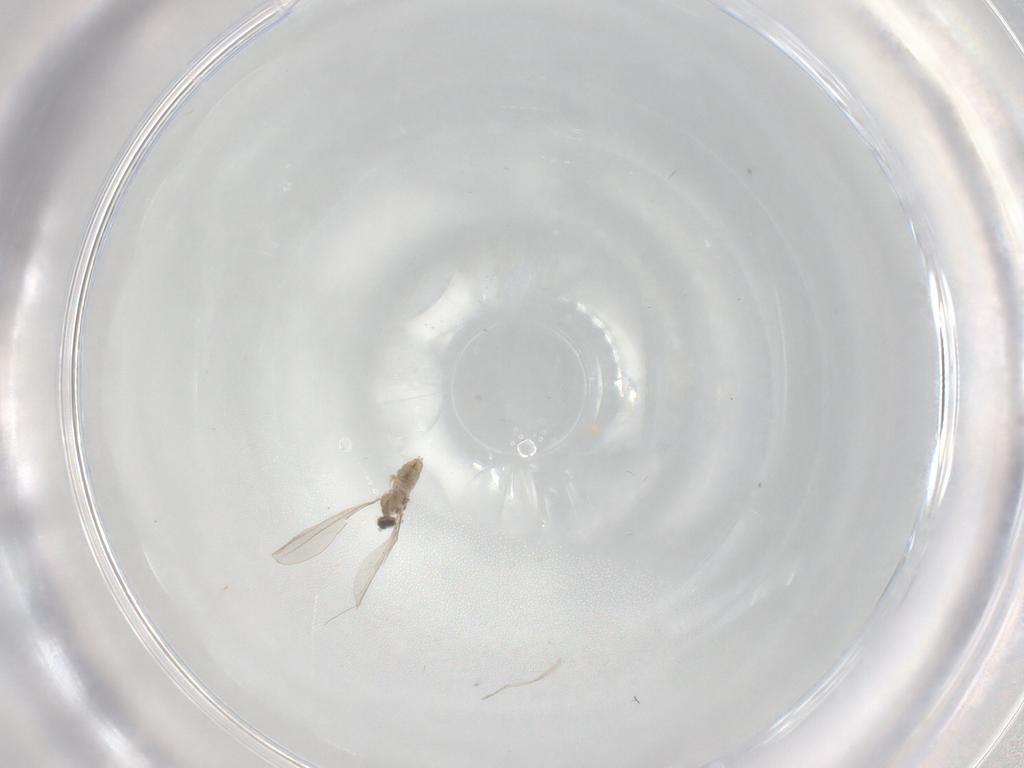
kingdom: Animalia
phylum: Arthropoda
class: Insecta
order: Diptera
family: Cecidomyiidae
